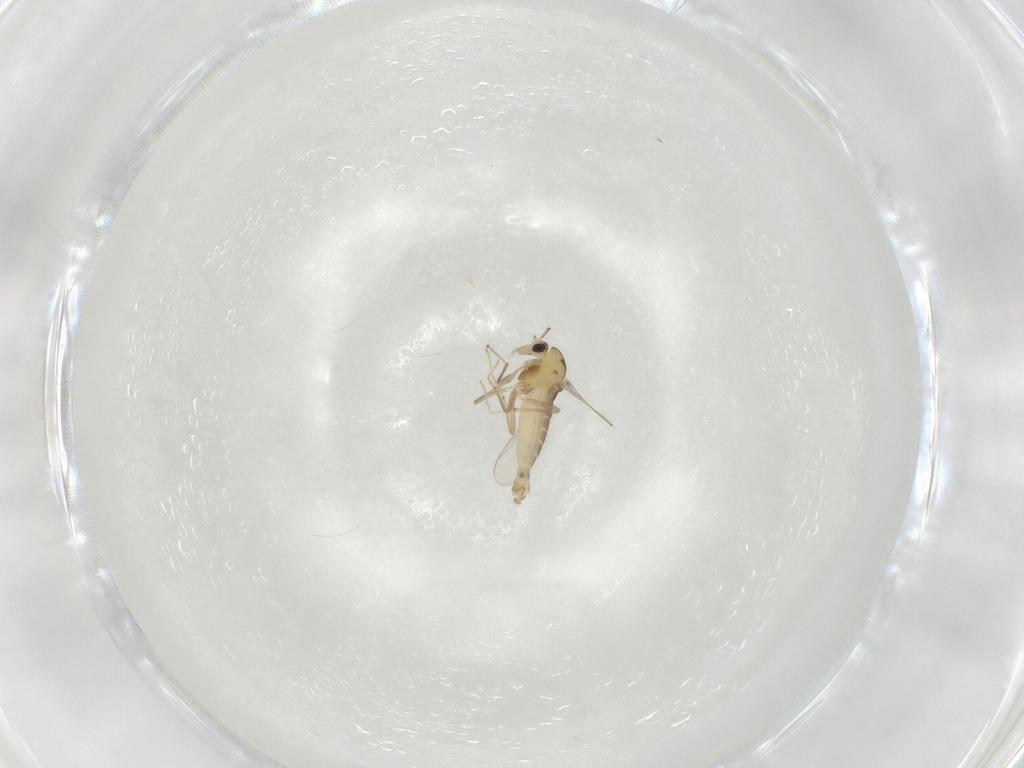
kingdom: Animalia
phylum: Arthropoda
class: Insecta
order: Diptera
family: Chironomidae
